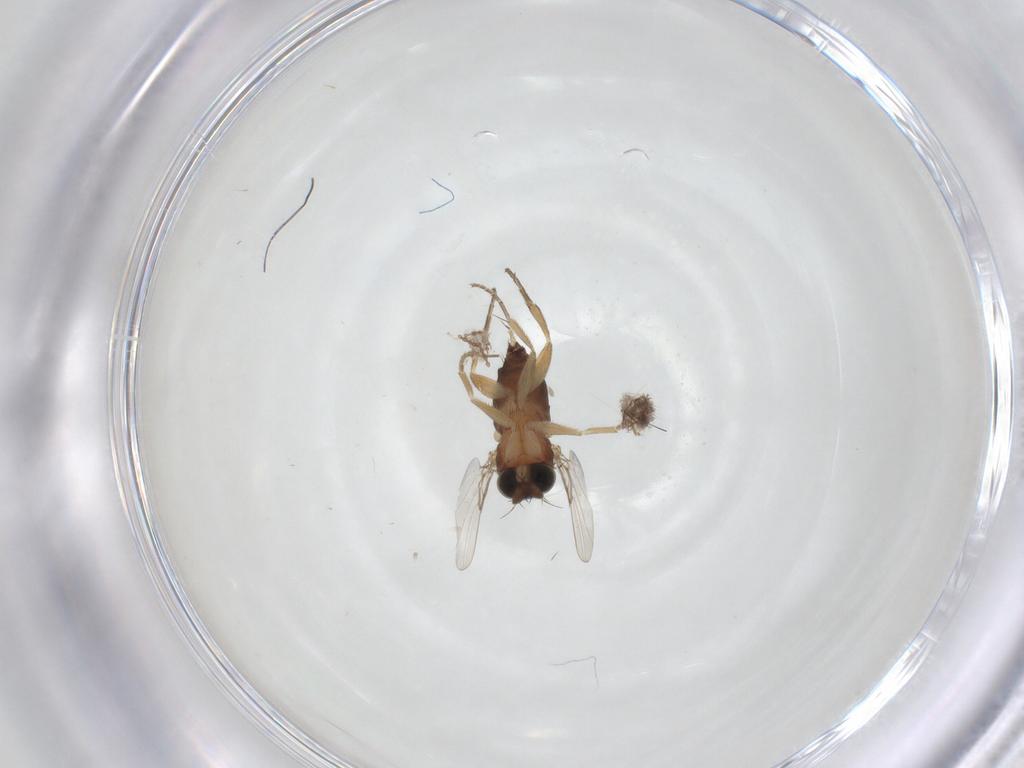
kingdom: Animalia
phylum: Arthropoda
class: Insecta
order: Diptera
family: Phoridae
